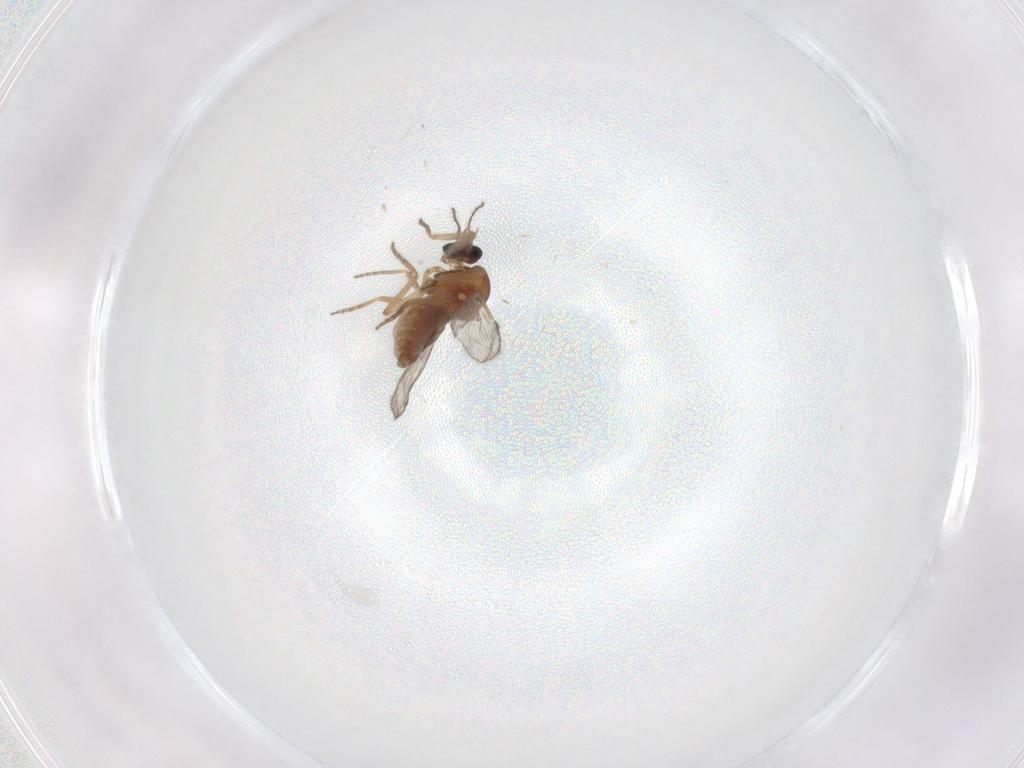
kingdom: Animalia
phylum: Arthropoda
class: Insecta
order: Diptera
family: Ceratopogonidae
